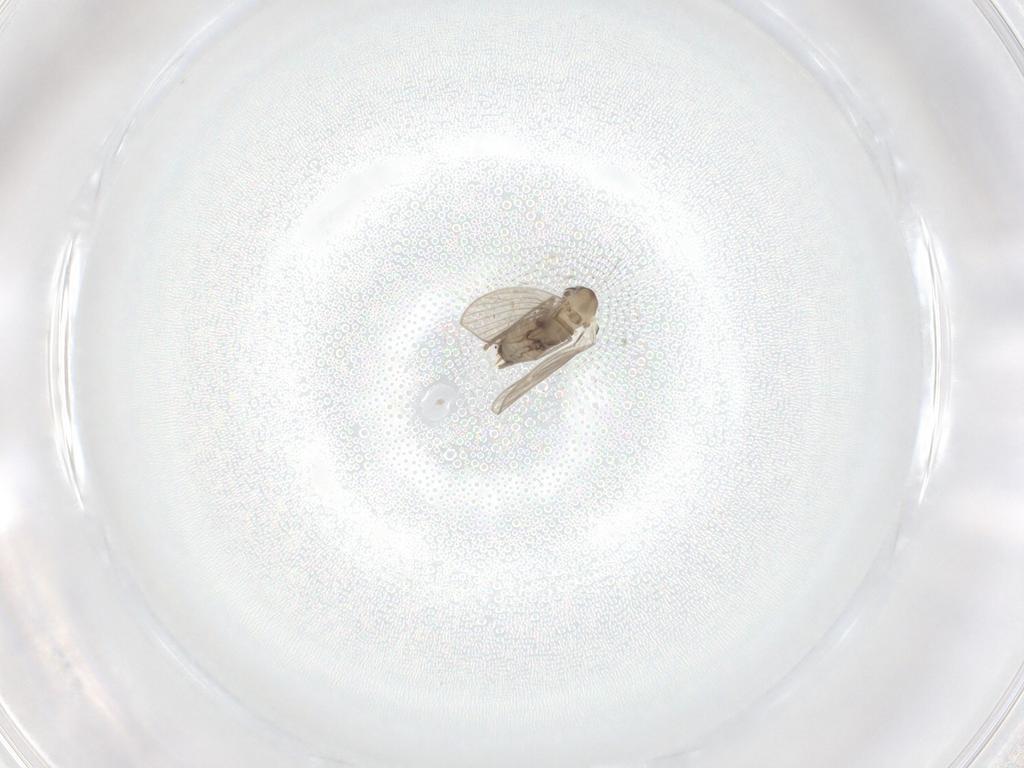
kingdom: Animalia
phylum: Arthropoda
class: Insecta
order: Diptera
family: Psychodidae
